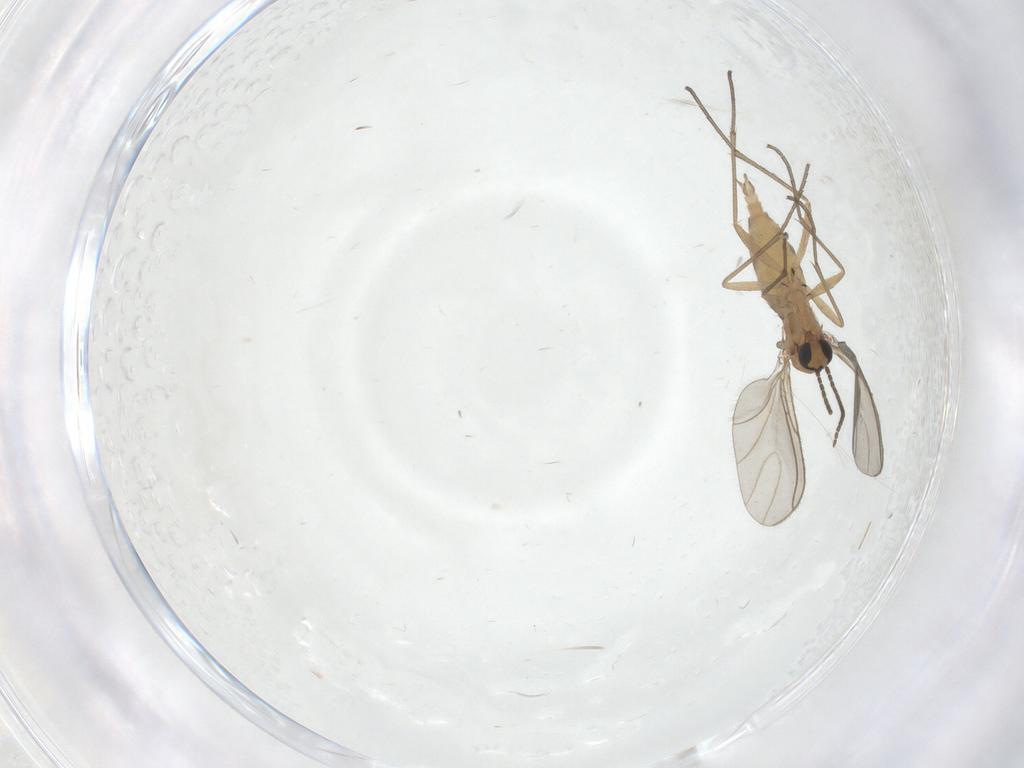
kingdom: Animalia
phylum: Arthropoda
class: Insecta
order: Diptera
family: Sciaridae
